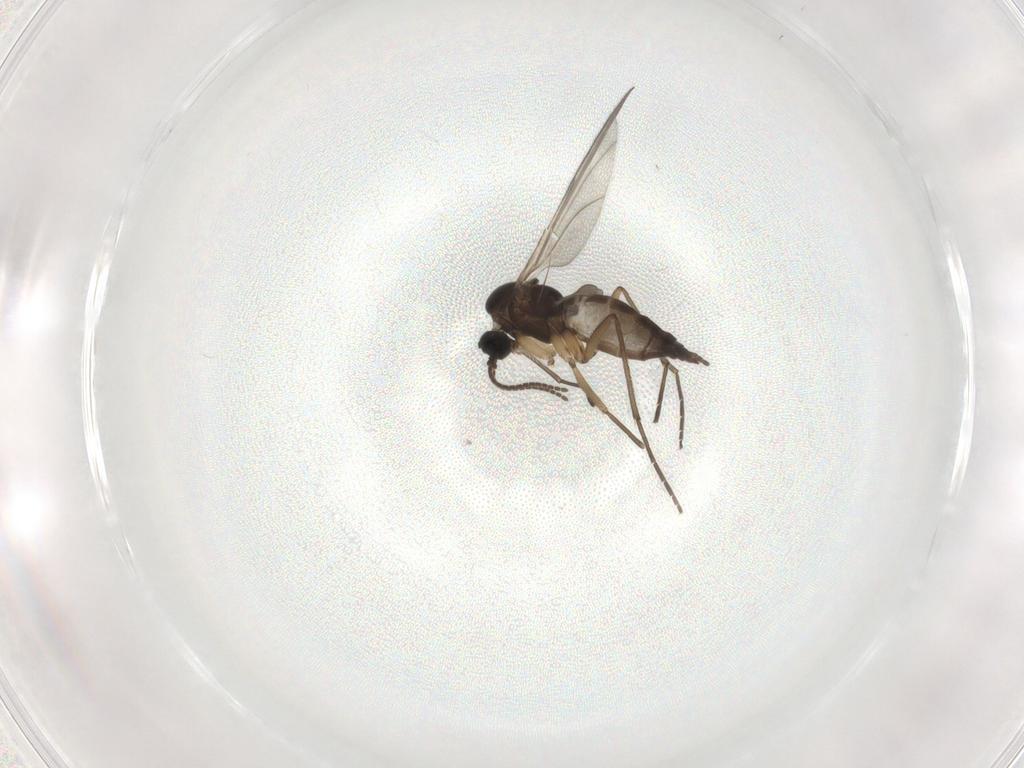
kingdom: Animalia
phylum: Arthropoda
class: Insecta
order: Diptera
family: Sciaridae
